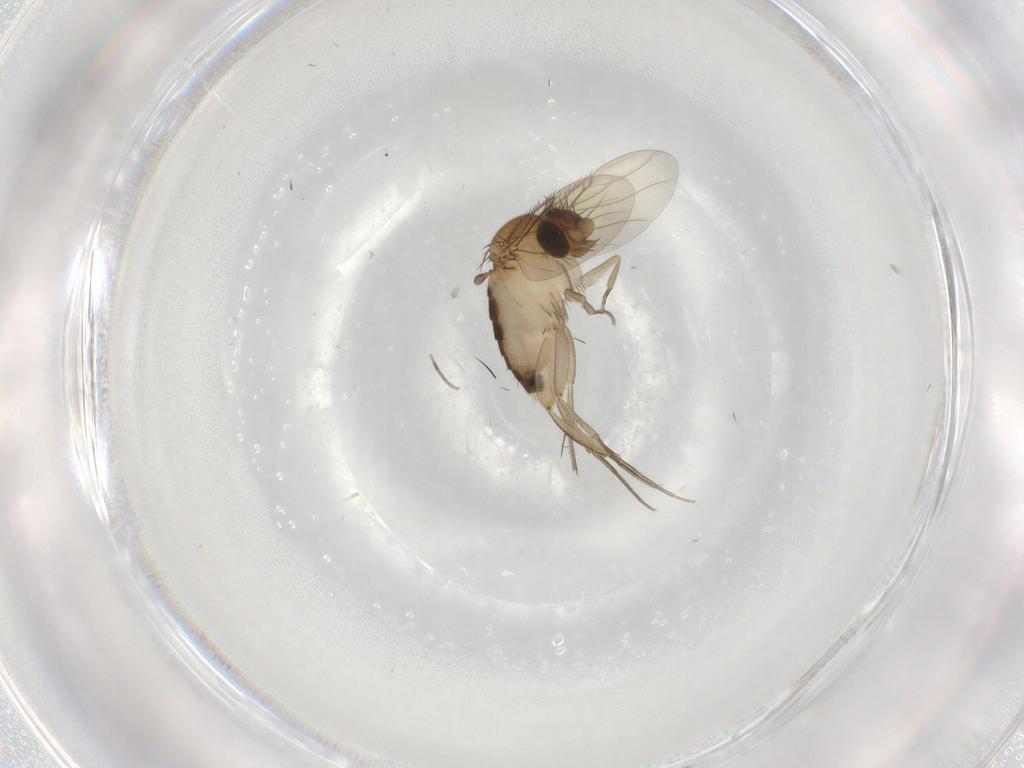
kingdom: Animalia
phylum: Arthropoda
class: Insecta
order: Diptera
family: Phoridae
